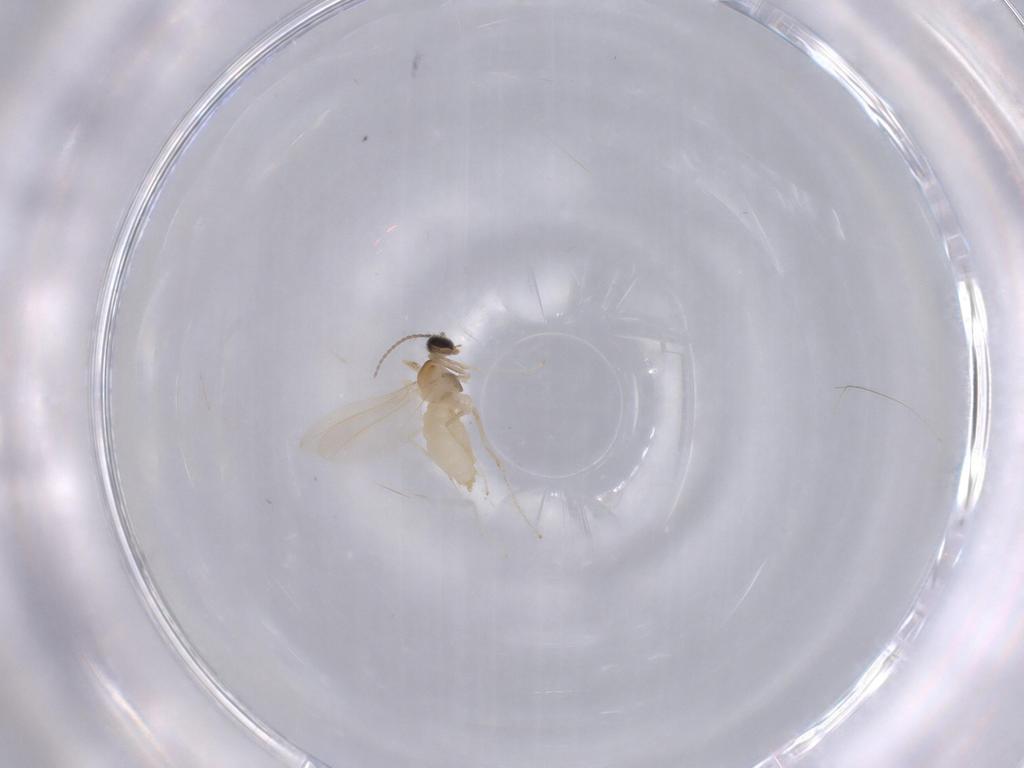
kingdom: Animalia
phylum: Arthropoda
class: Insecta
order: Diptera
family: Cecidomyiidae
